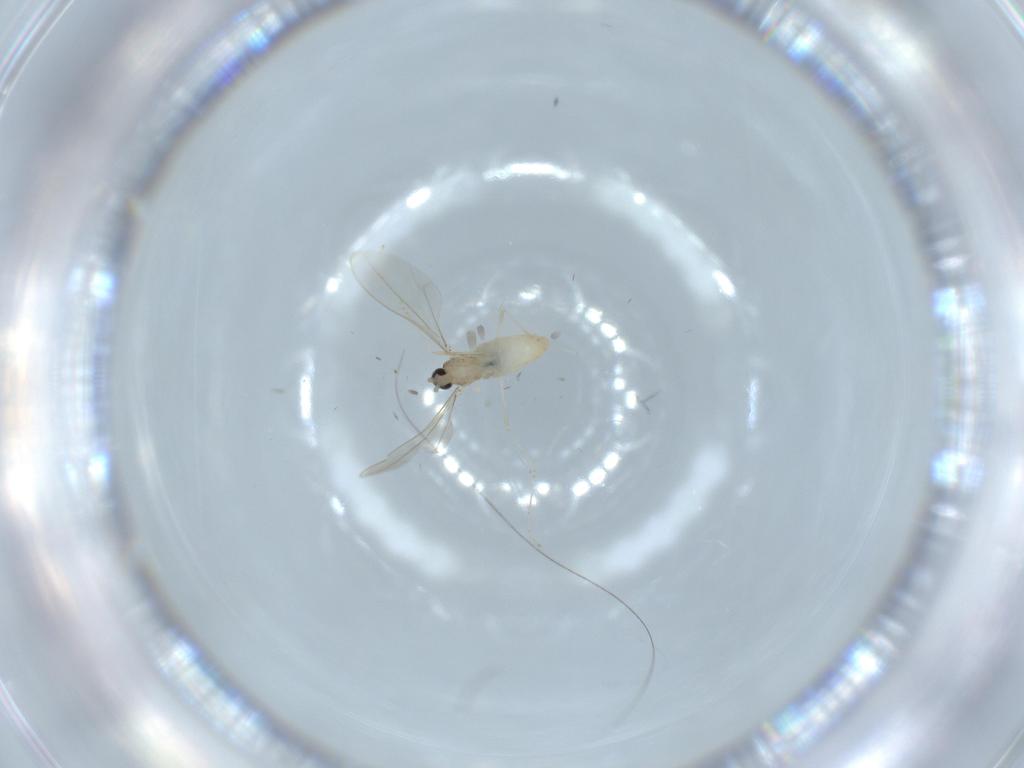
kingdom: Animalia
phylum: Arthropoda
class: Insecta
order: Diptera
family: Cecidomyiidae
